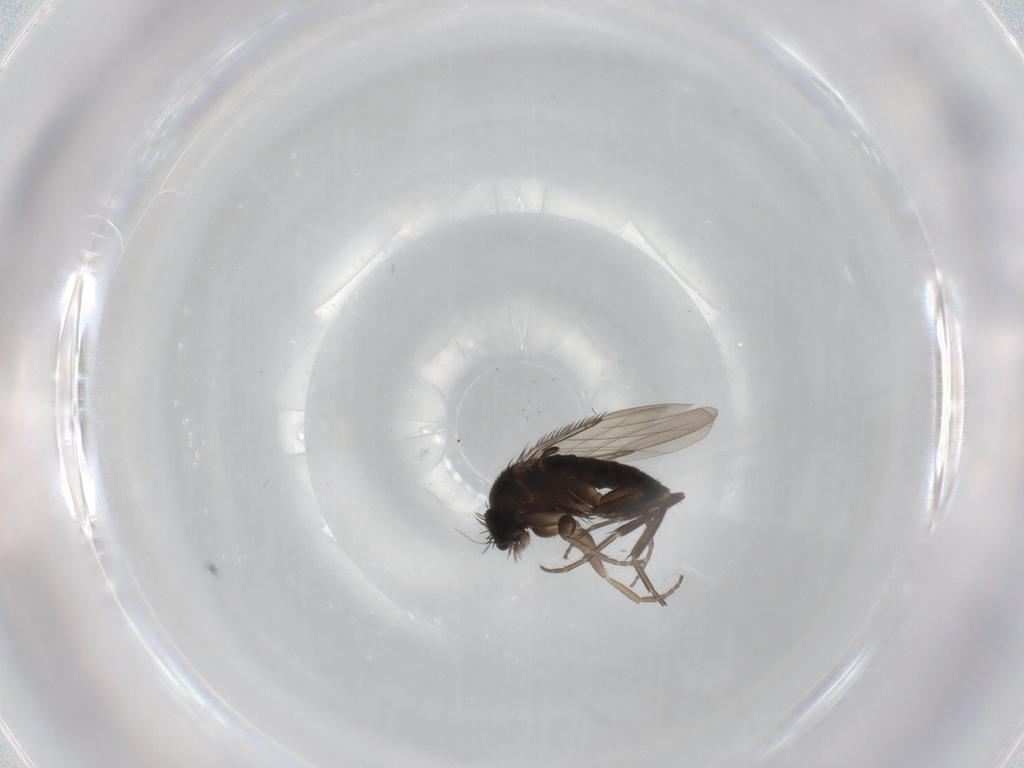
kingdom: Animalia
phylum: Arthropoda
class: Insecta
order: Diptera
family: Phoridae
